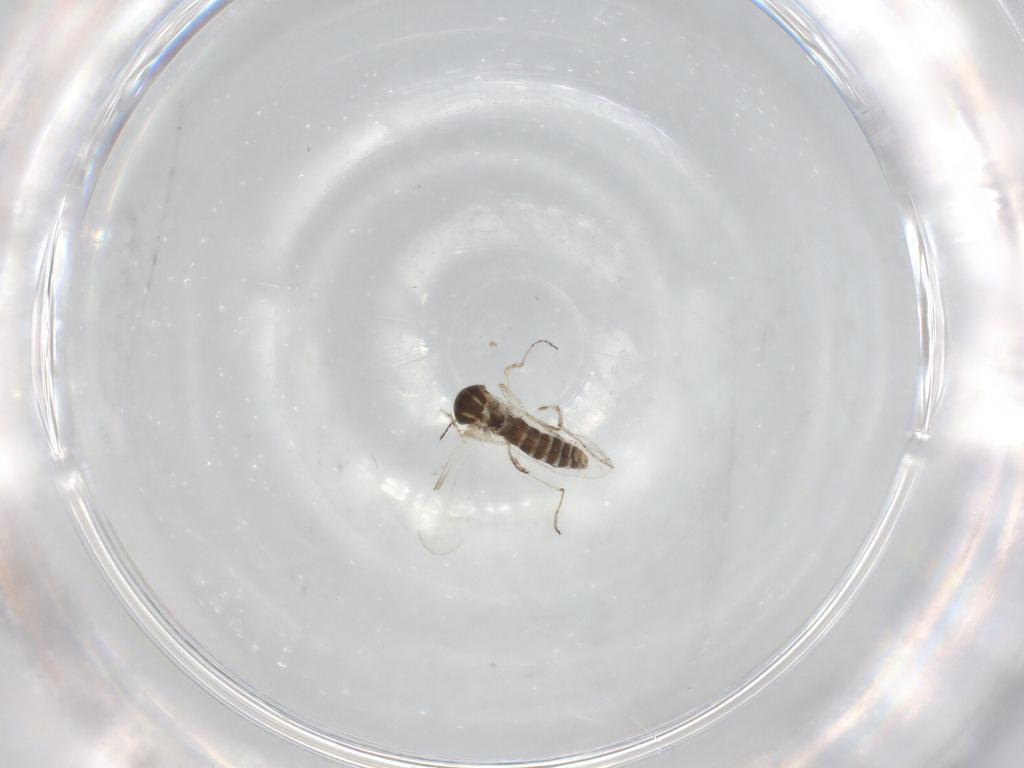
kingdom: Animalia
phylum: Arthropoda
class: Insecta
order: Diptera
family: Ceratopogonidae
